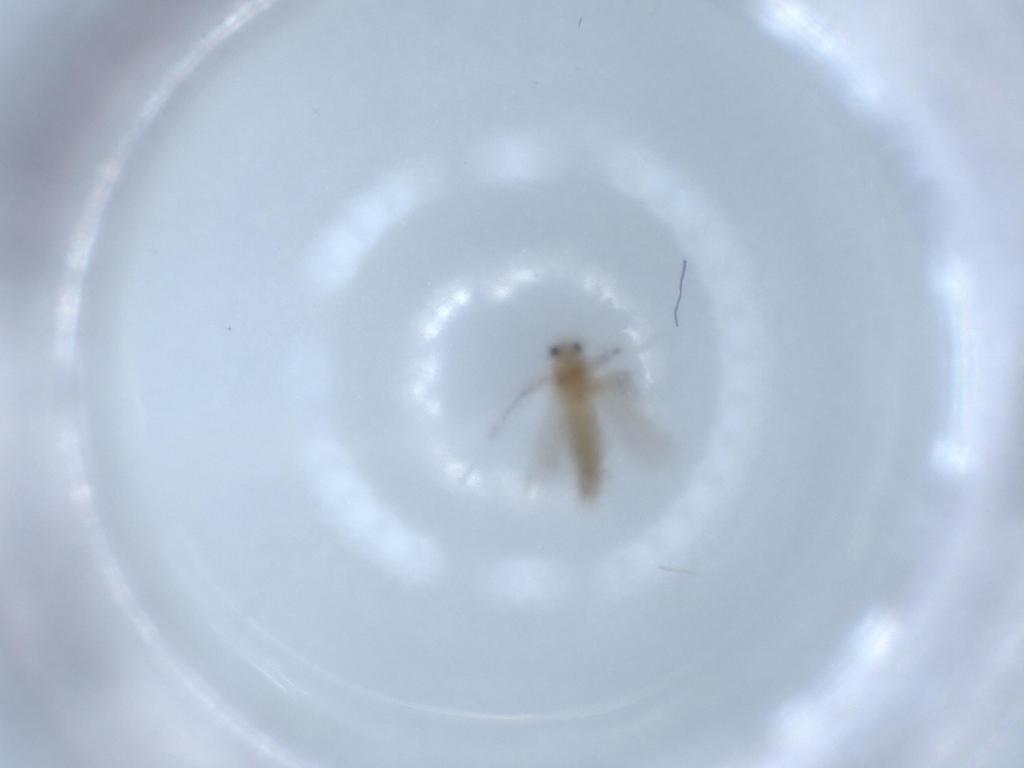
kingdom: Animalia
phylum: Arthropoda
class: Insecta
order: Diptera
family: Chironomidae
